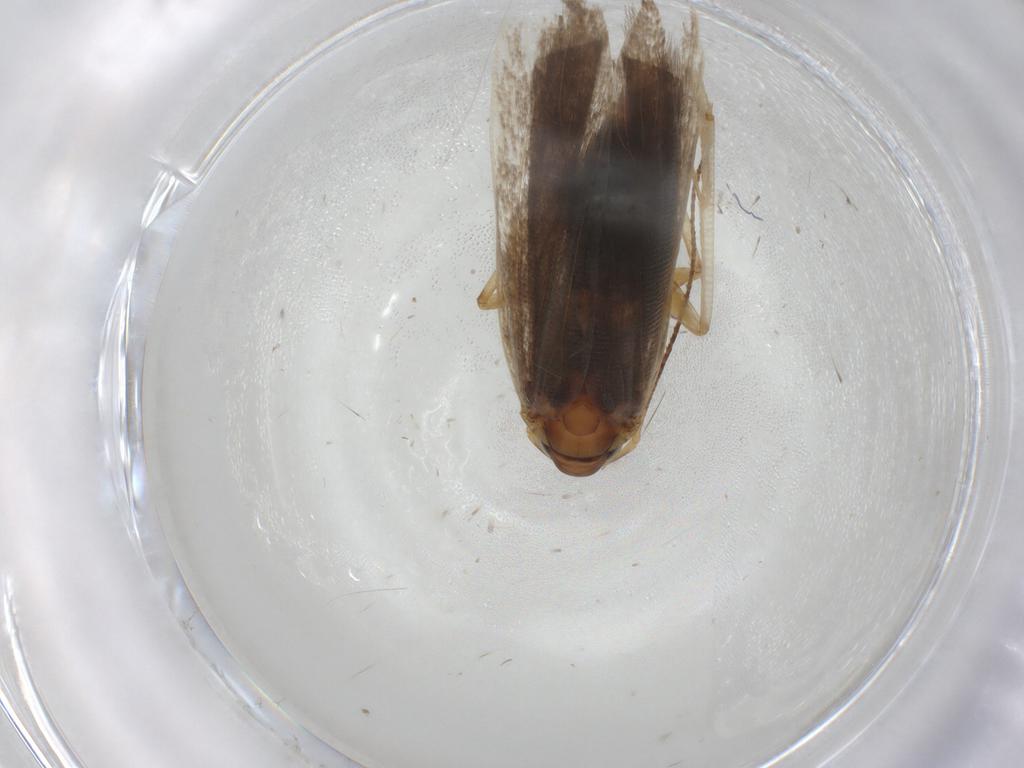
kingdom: Animalia
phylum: Arthropoda
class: Insecta
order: Lepidoptera
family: Gelechiidae
